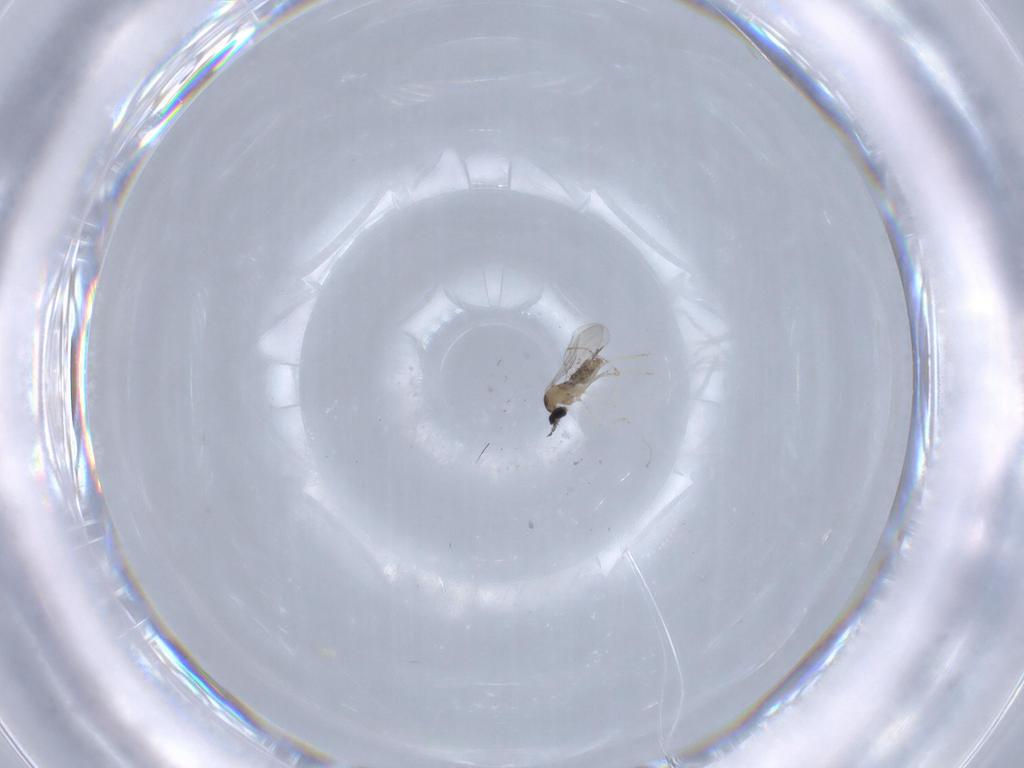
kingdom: Animalia
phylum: Arthropoda
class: Insecta
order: Diptera
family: Cecidomyiidae
